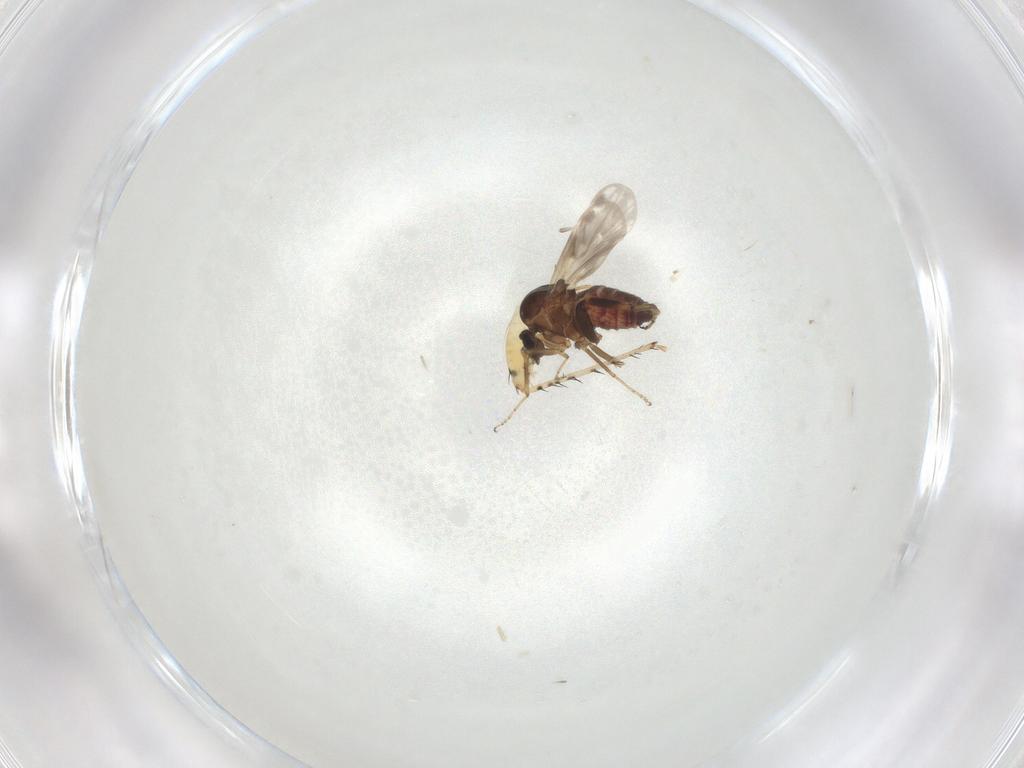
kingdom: Animalia
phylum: Arthropoda
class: Insecta
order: Diptera
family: Ceratopogonidae
